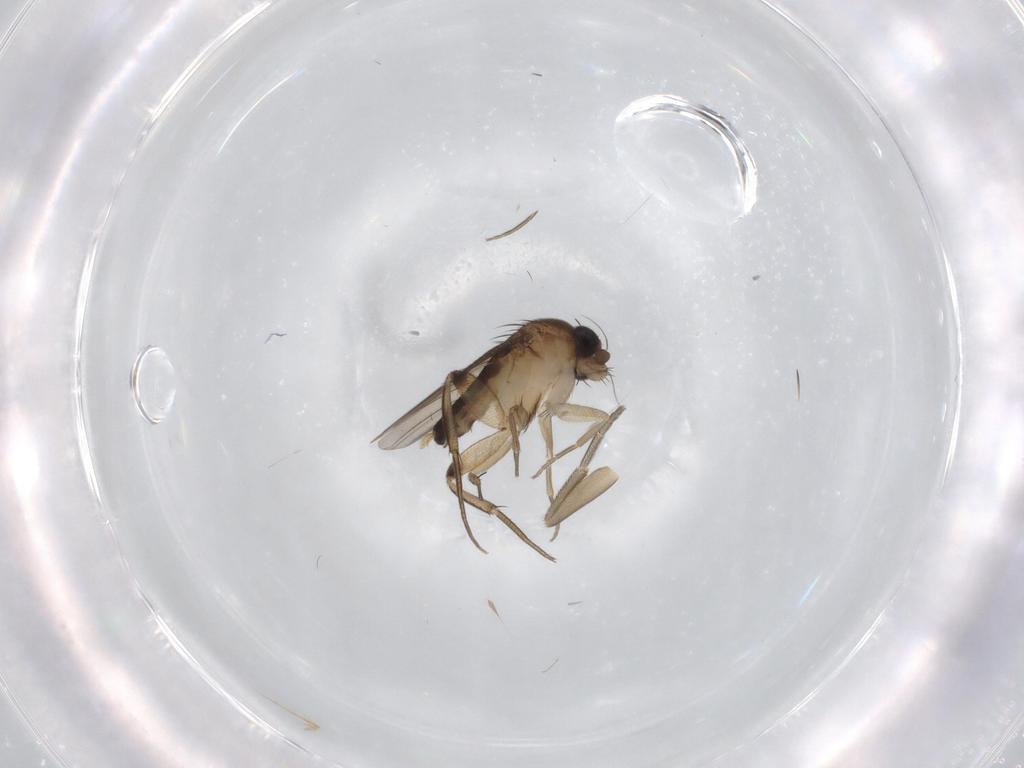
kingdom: Animalia
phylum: Arthropoda
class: Insecta
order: Diptera
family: Phoridae
